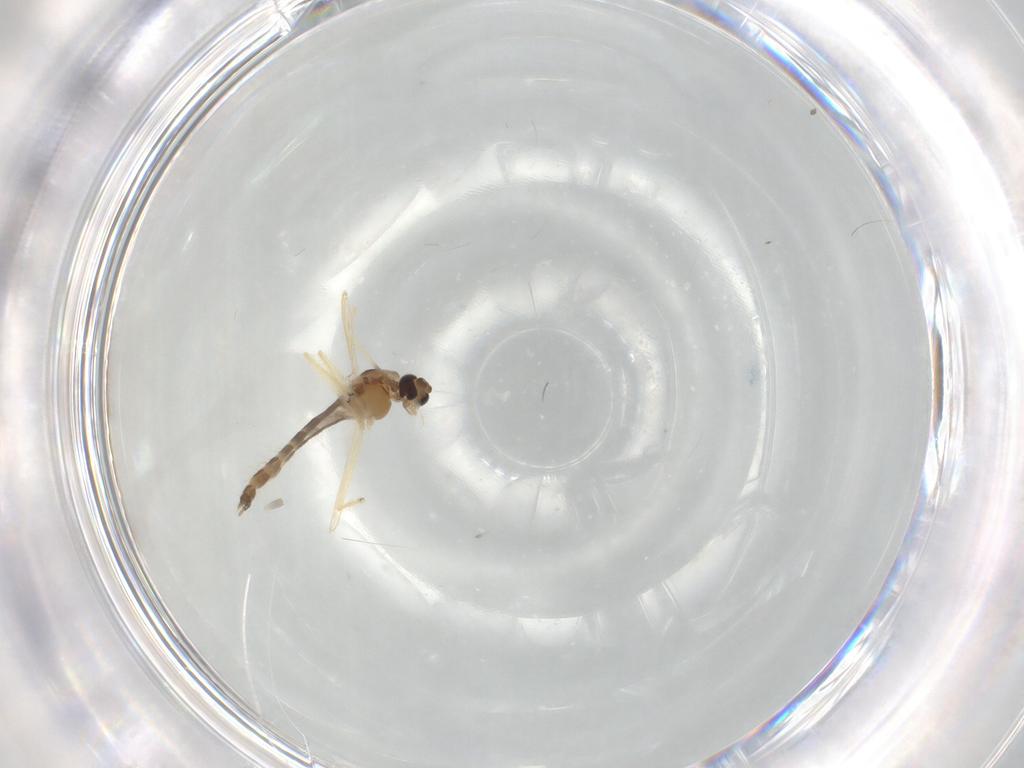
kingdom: Animalia
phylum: Arthropoda
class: Insecta
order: Diptera
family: Chironomidae
